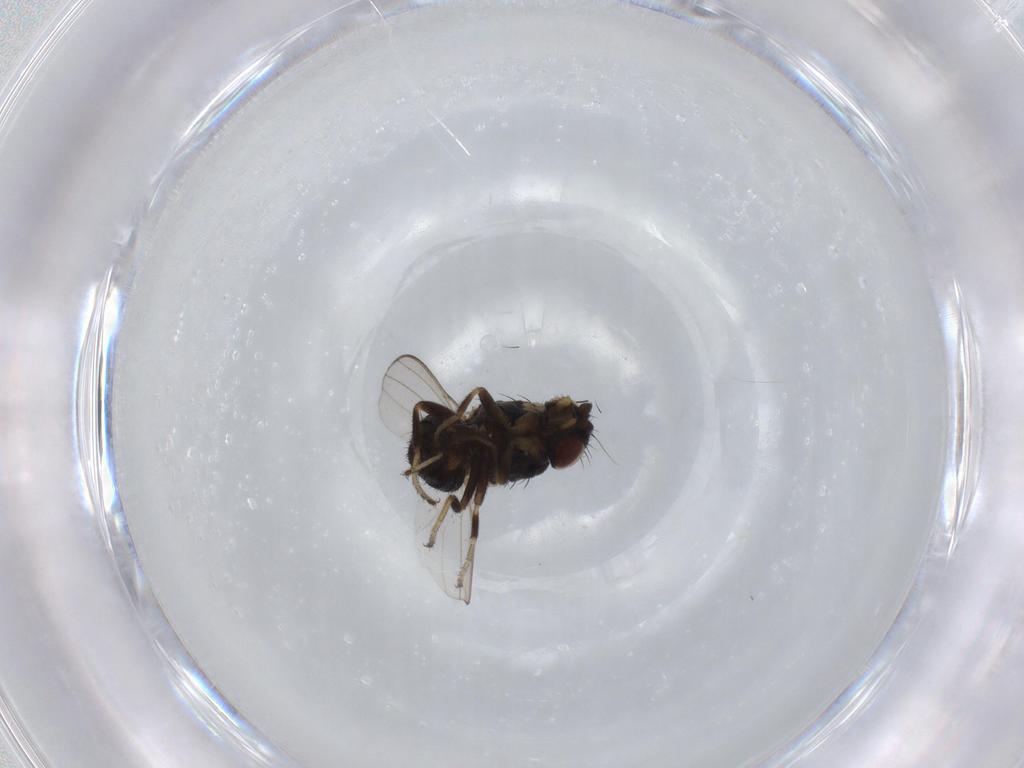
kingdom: Animalia
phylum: Arthropoda
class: Insecta
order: Diptera
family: Milichiidae
